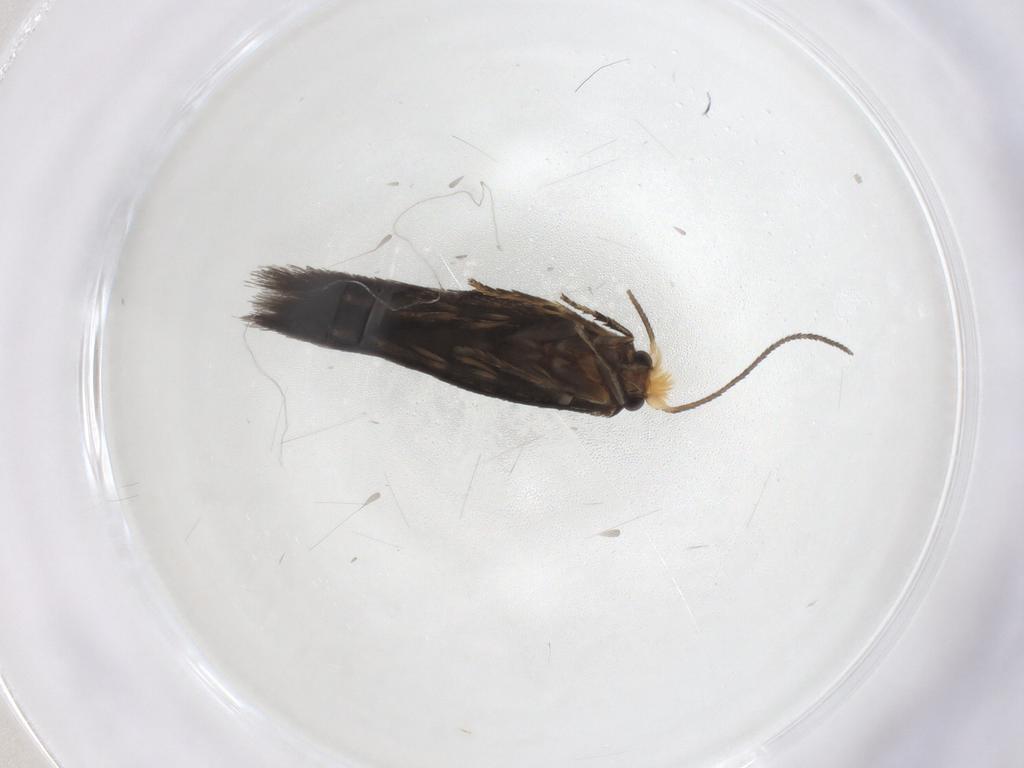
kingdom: Animalia
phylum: Arthropoda
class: Insecta
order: Lepidoptera
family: Nepticulidae
